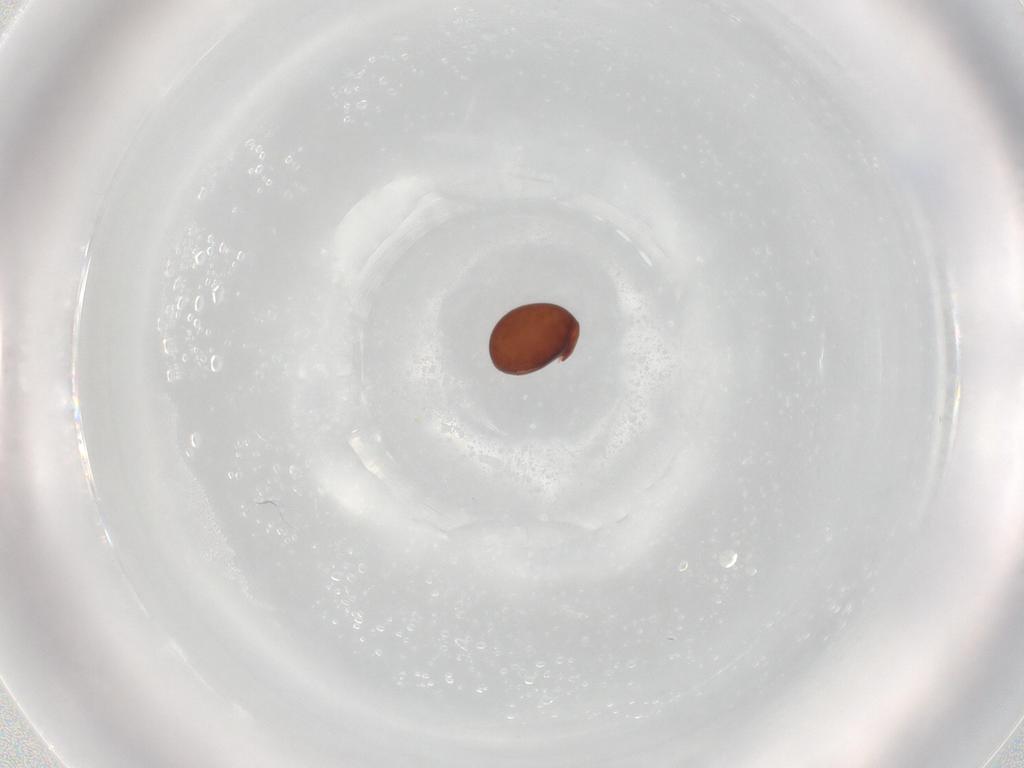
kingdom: Animalia
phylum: Arthropoda
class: Arachnida
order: Sarcoptiformes
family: Phthiracaridae
